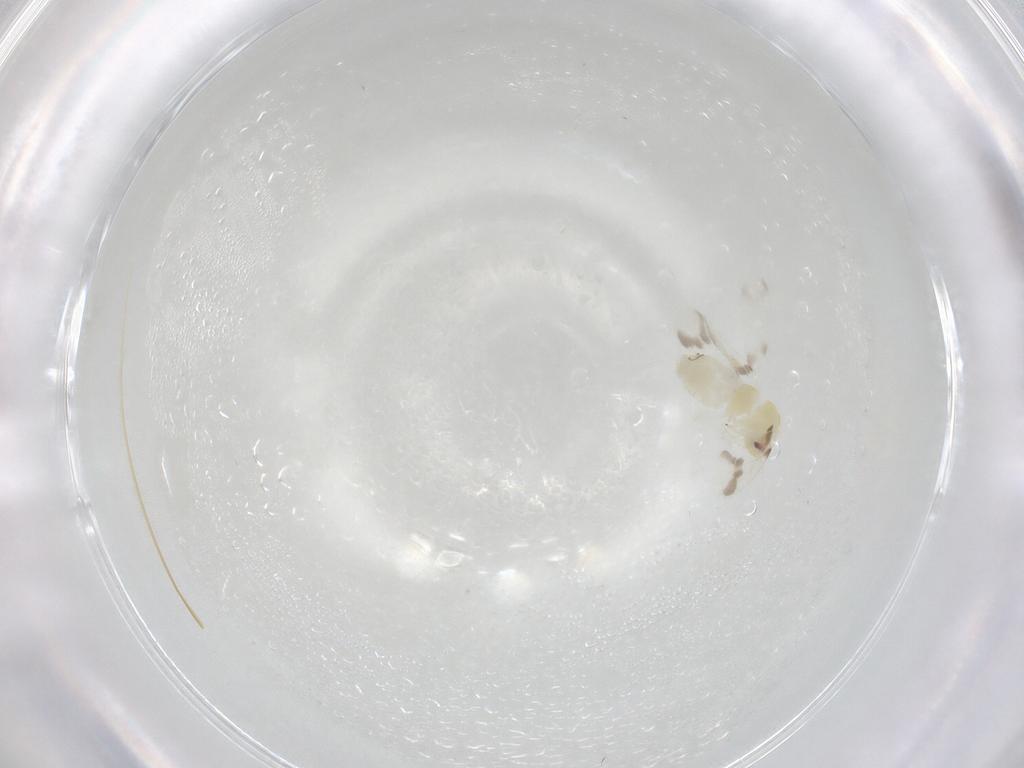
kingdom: Animalia
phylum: Arthropoda
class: Insecta
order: Hemiptera
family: Aleyrodidae
